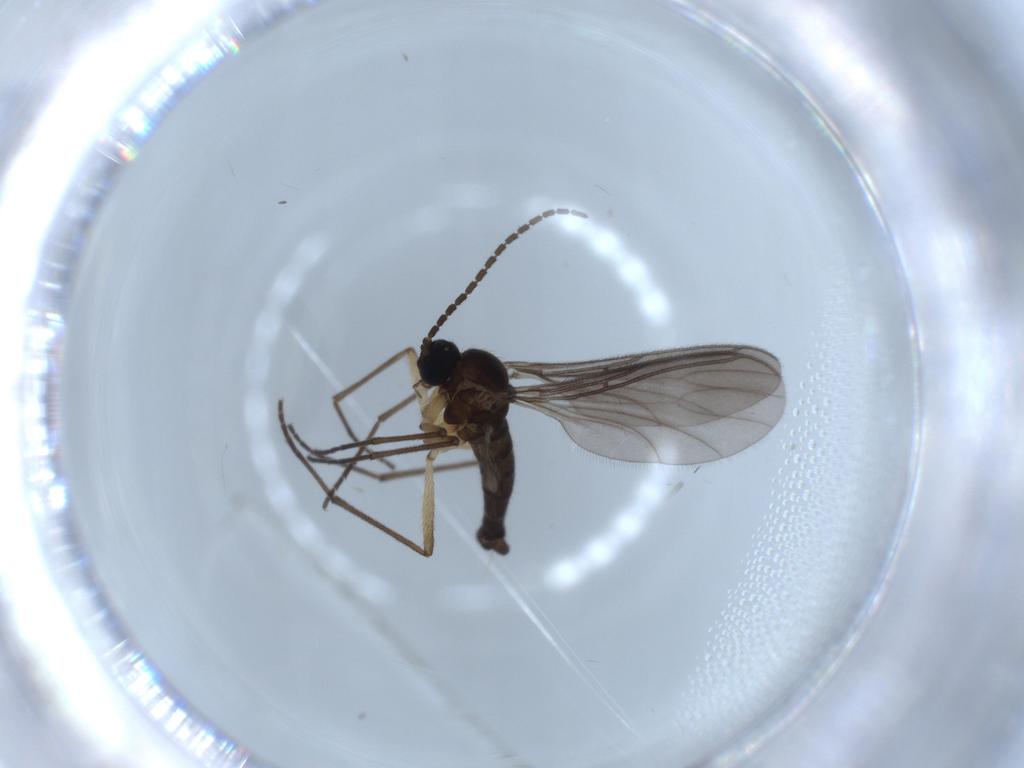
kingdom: Animalia
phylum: Arthropoda
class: Insecta
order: Diptera
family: Sciaridae
